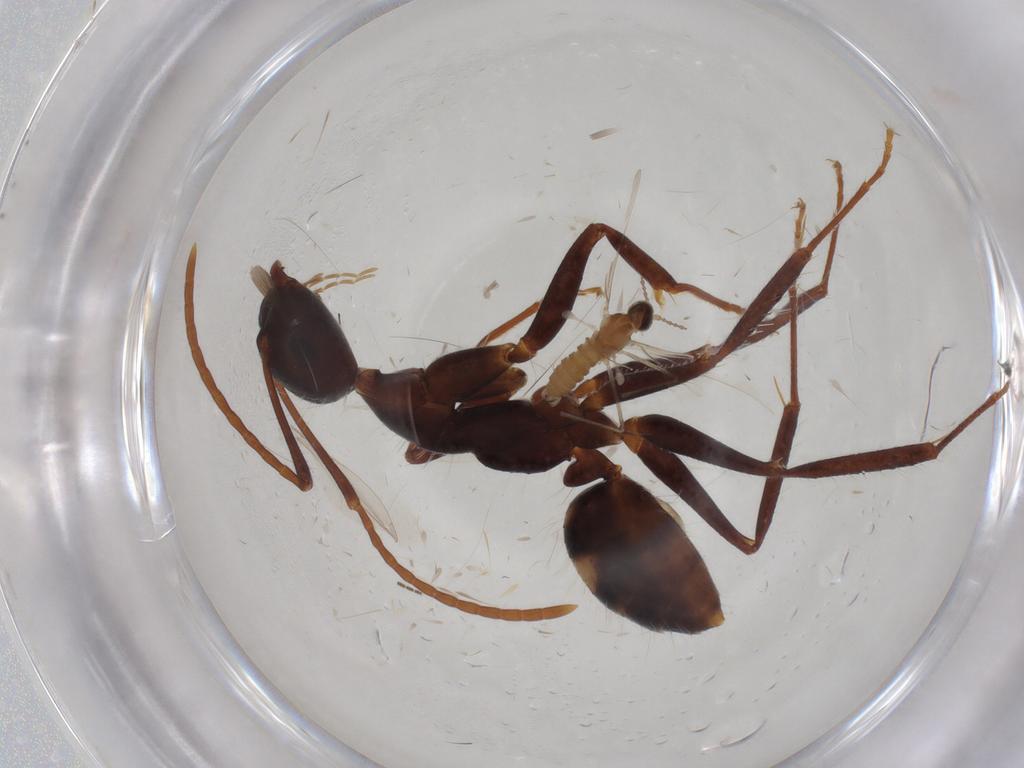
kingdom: Animalia
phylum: Arthropoda
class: Insecta
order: Diptera
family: Cecidomyiidae
